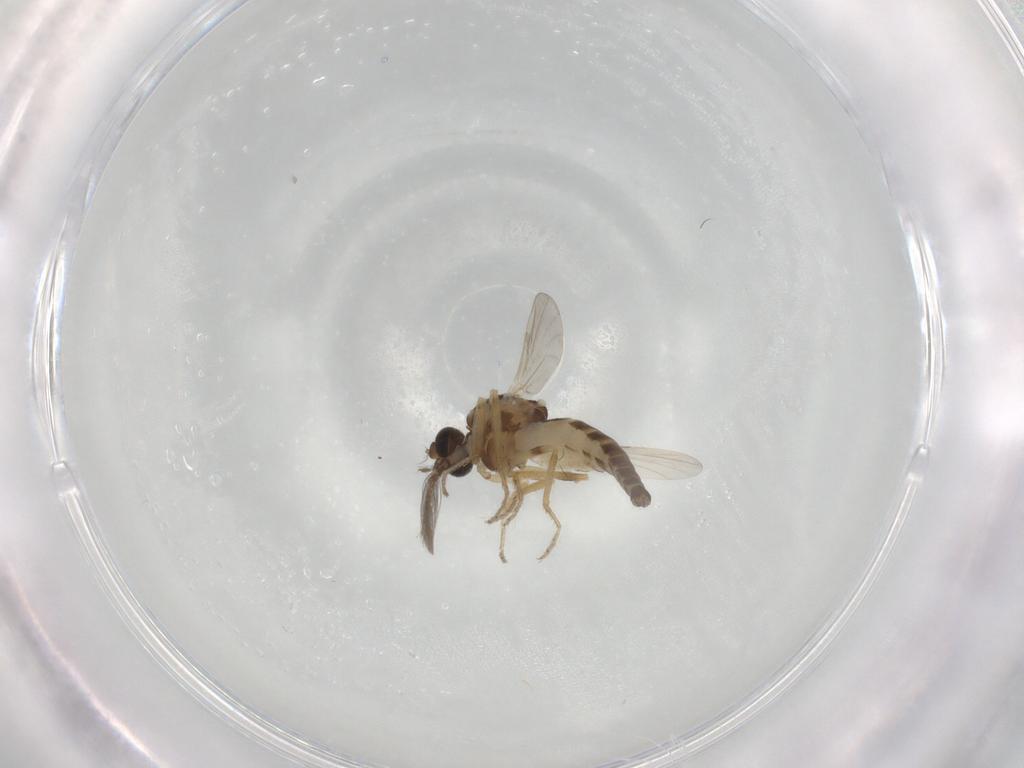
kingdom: Animalia
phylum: Arthropoda
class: Insecta
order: Diptera
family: Ceratopogonidae
